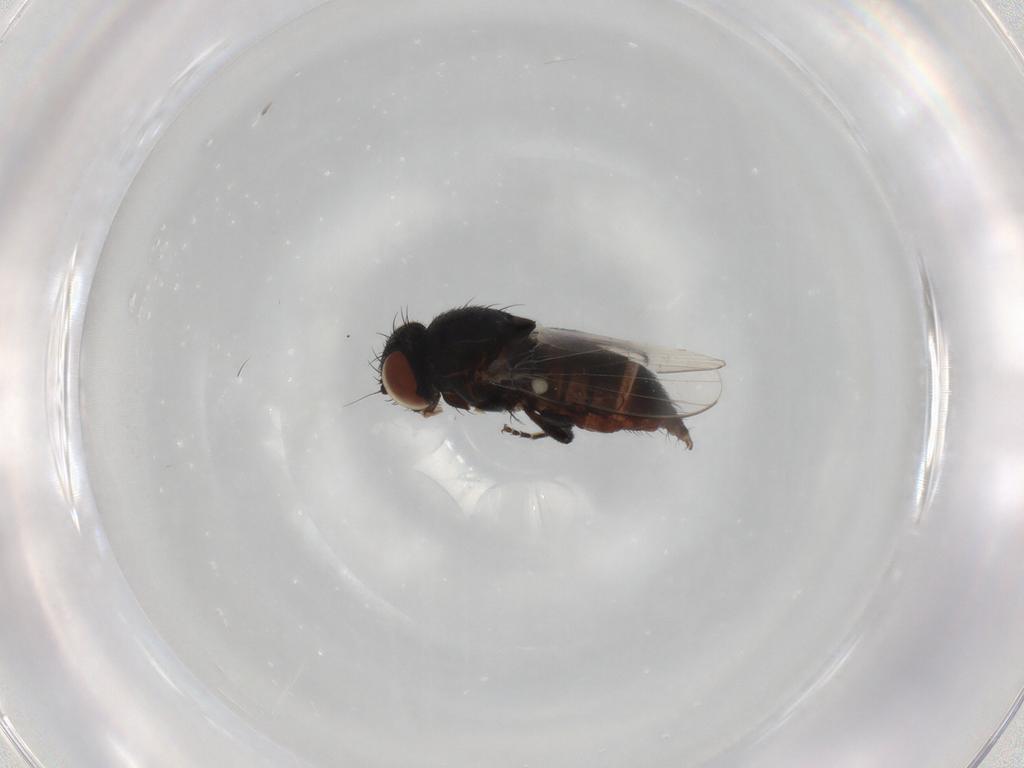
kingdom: Animalia
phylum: Arthropoda
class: Insecta
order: Diptera
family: Milichiidae
